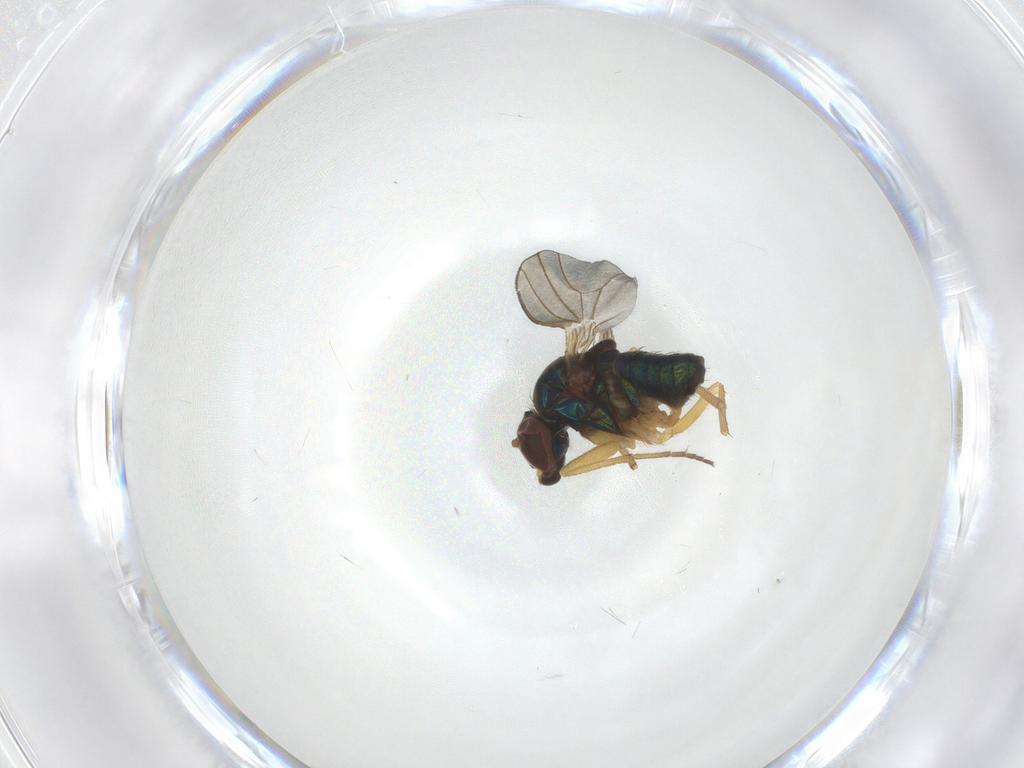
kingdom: Animalia
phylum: Arthropoda
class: Insecta
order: Diptera
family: Dolichopodidae
